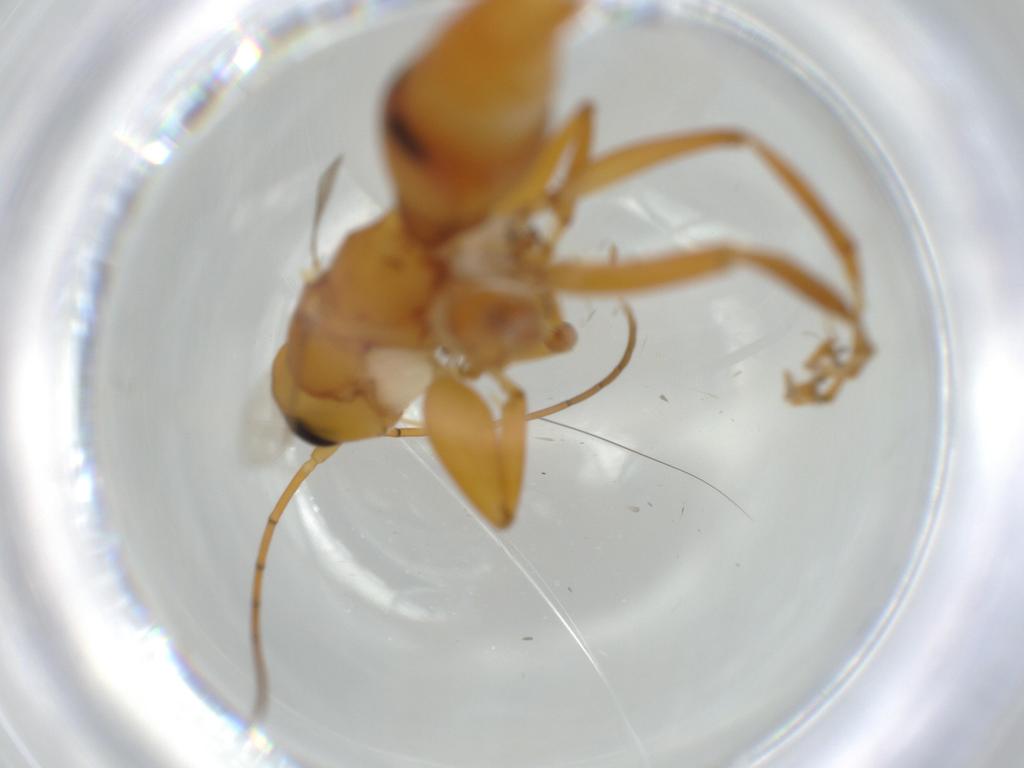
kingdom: Animalia
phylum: Arthropoda
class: Insecta
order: Hymenoptera
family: Rhopalosomatidae
